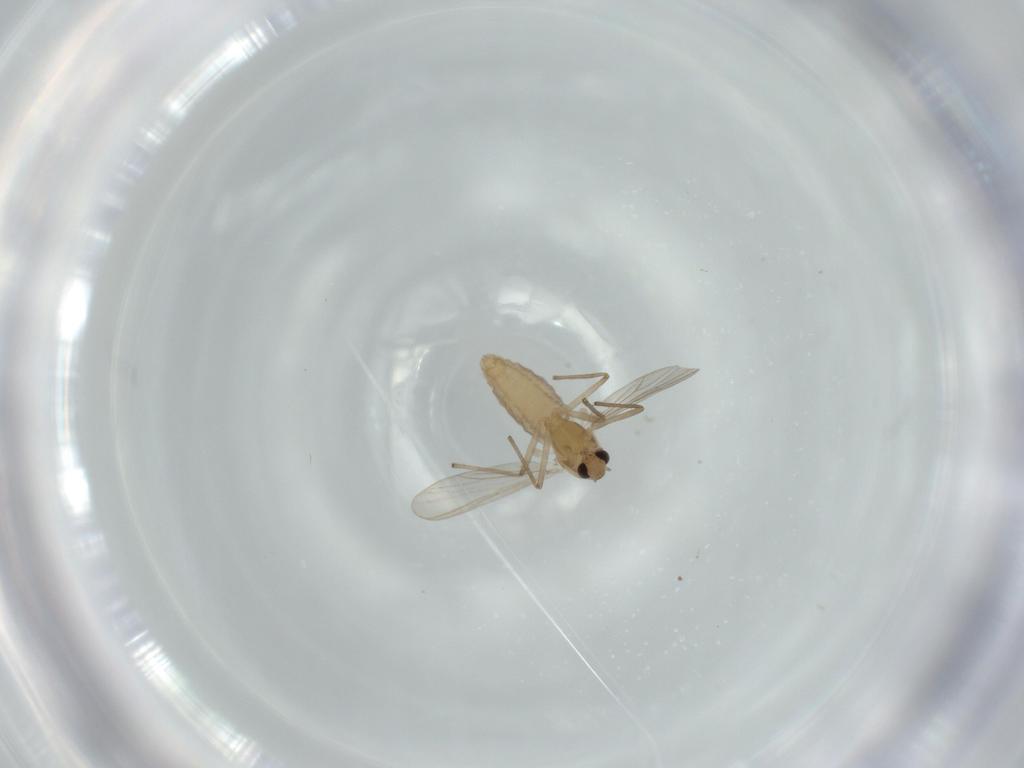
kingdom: Animalia
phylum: Arthropoda
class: Insecta
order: Diptera
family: Chironomidae
